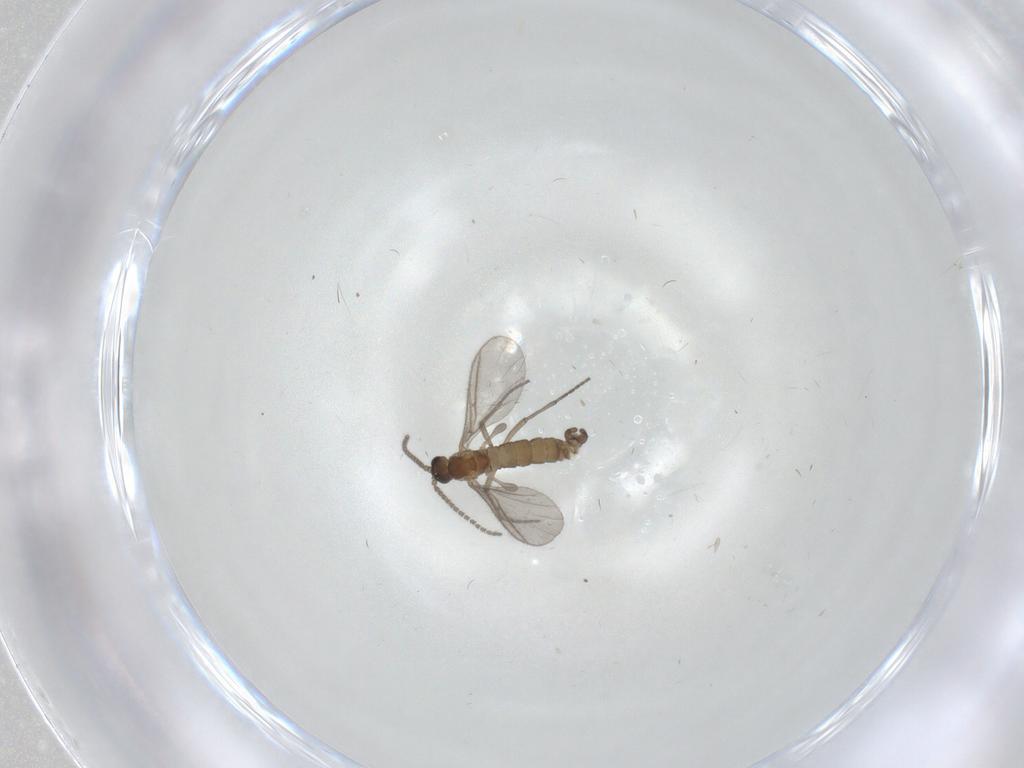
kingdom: Animalia
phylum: Arthropoda
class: Insecta
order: Diptera
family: Sciaridae
